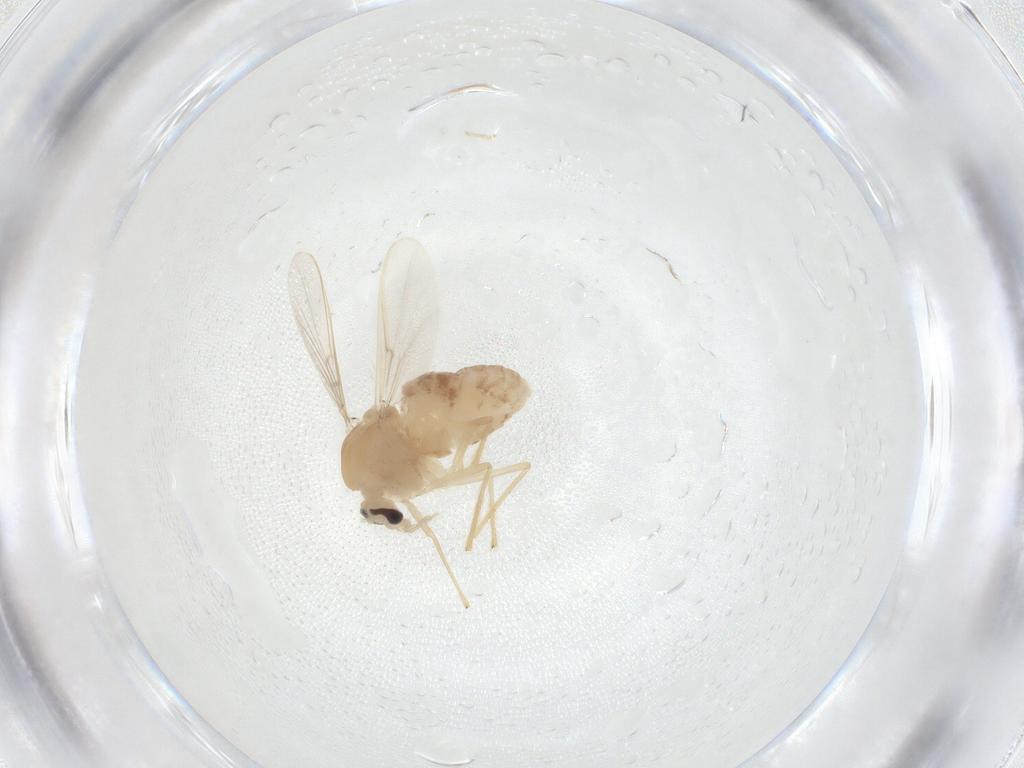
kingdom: Animalia
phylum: Arthropoda
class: Insecta
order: Diptera
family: Chironomidae
